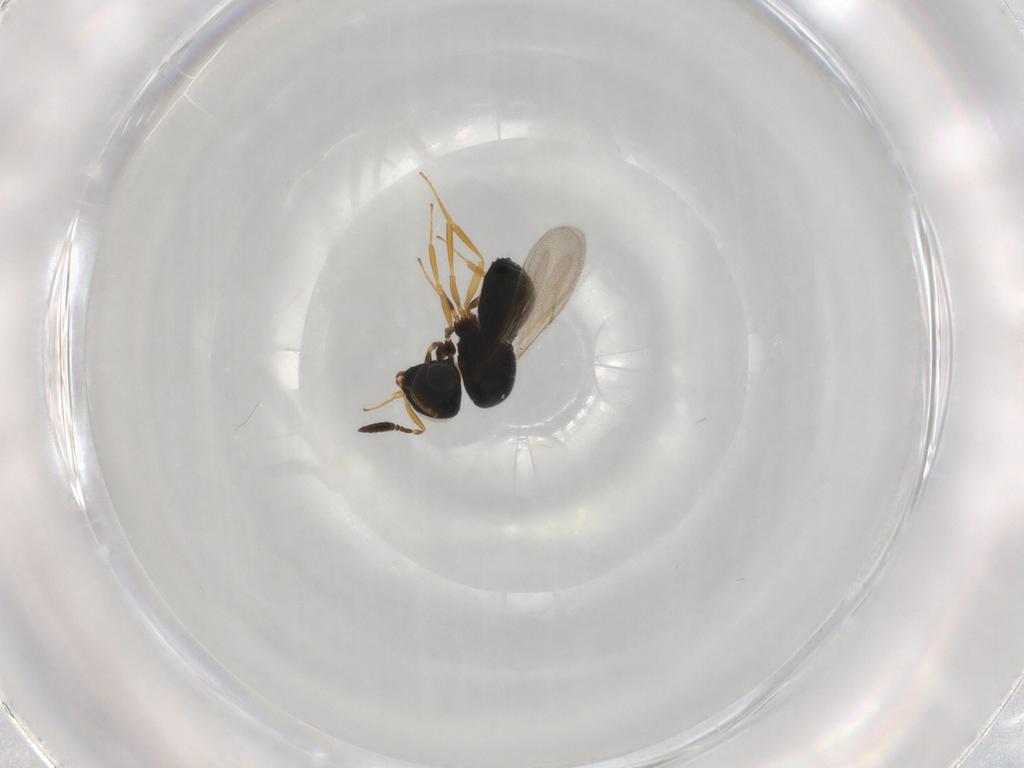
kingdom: Animalia
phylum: Arthropoda
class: Insecta
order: Hymenoptera
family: Scelionidae
